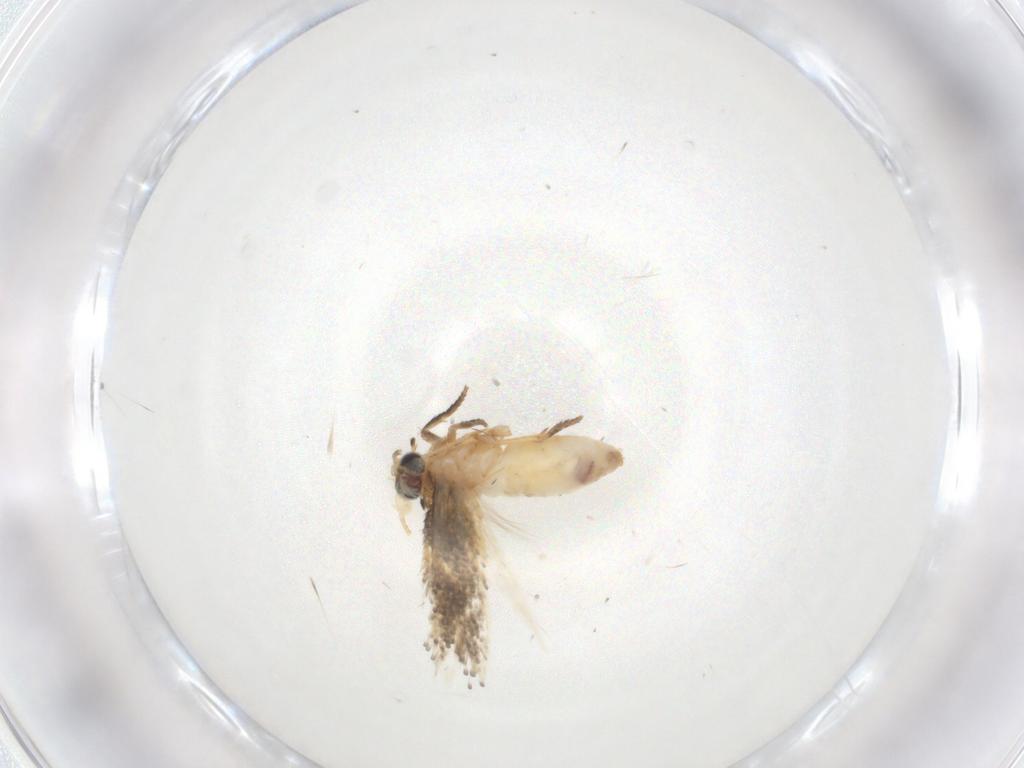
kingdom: Animalia
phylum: Arthropoda
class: Insecta
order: Lepidoptera
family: Nepticulidae
